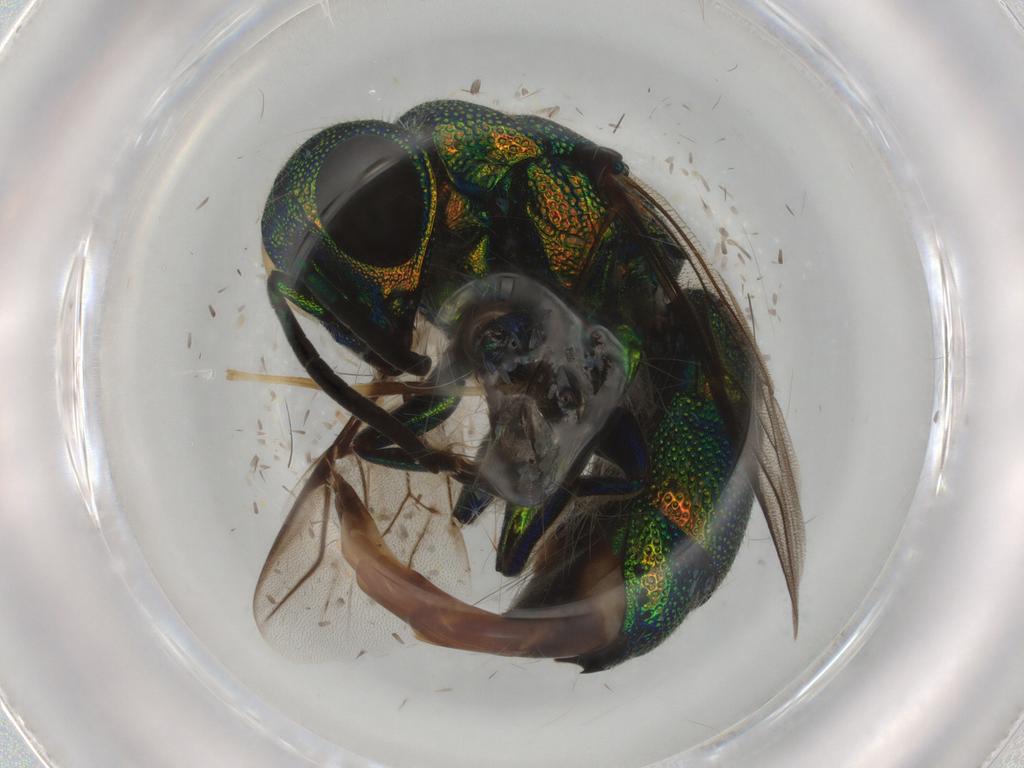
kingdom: Animalia
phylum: Arthropoda
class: Insecta
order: Hymenoptera
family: Chrysididae
